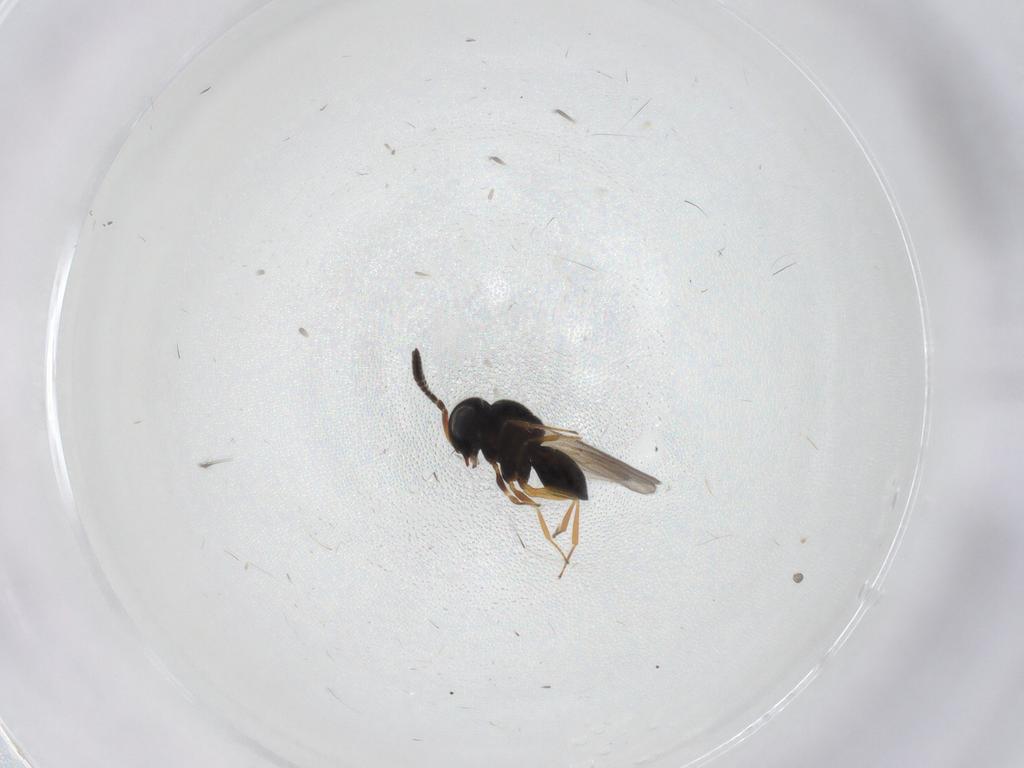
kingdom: Animalia
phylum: Arthropoda
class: Insecta
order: Hymenoptera
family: Scelionidae
